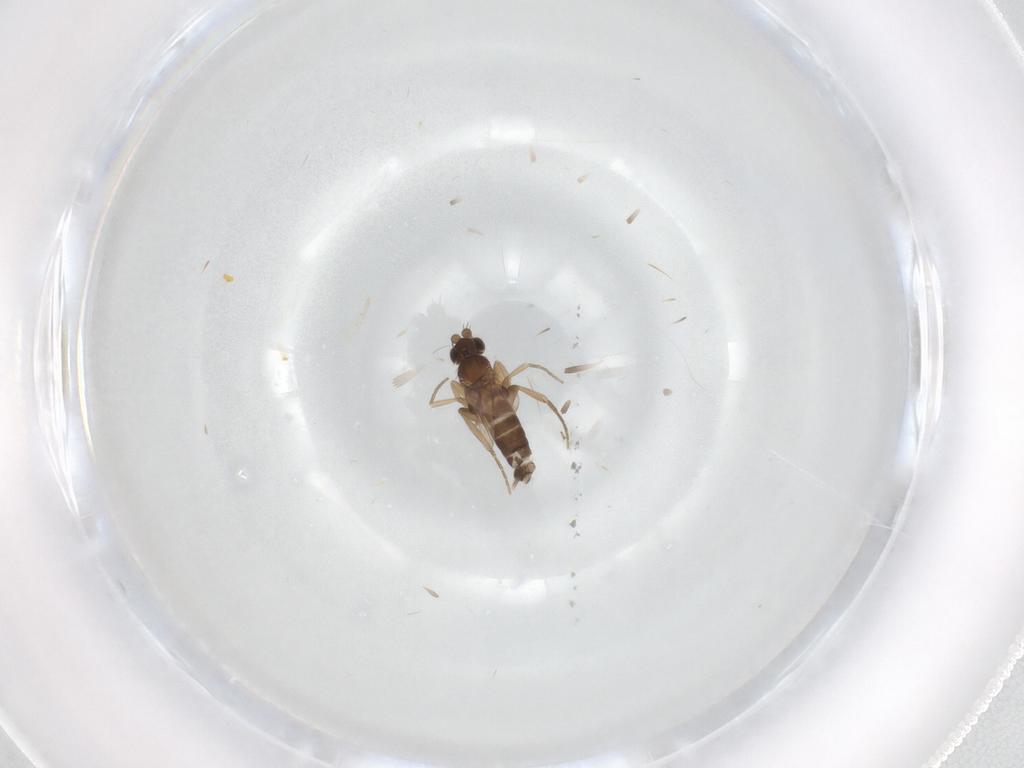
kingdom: Animalia
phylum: Arthropoda
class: Insecta
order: Diptera
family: Phoridae
